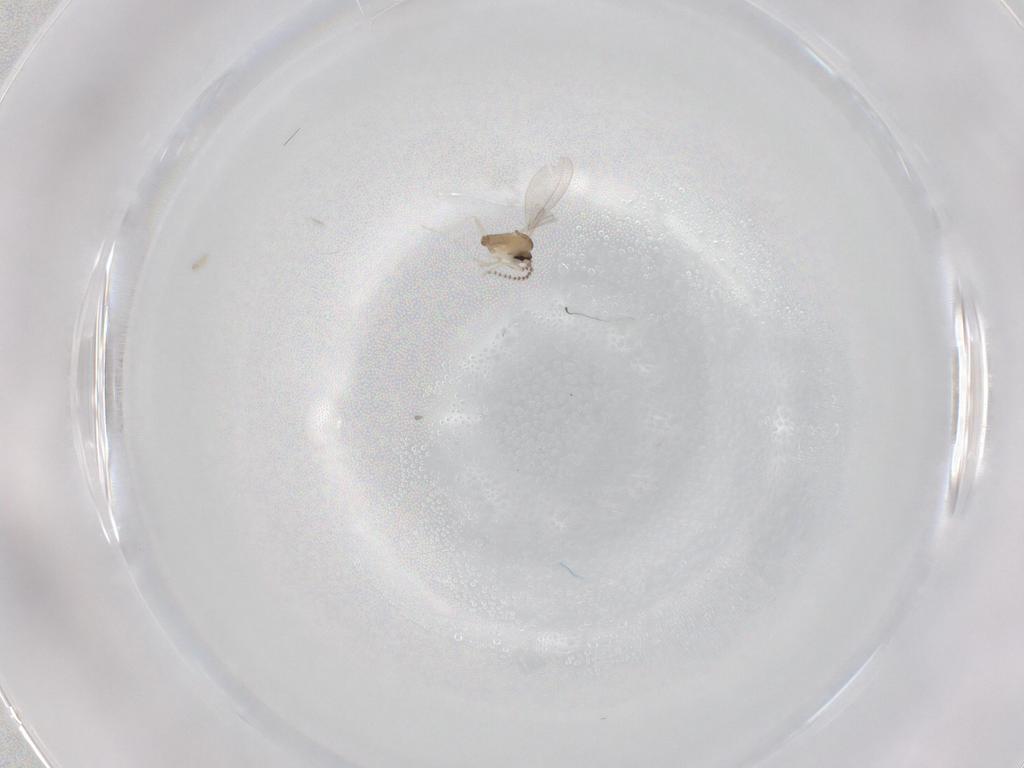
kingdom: Animalia
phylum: Arthropoda
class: Insecta
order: Diptera
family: Cecidomyiidae
